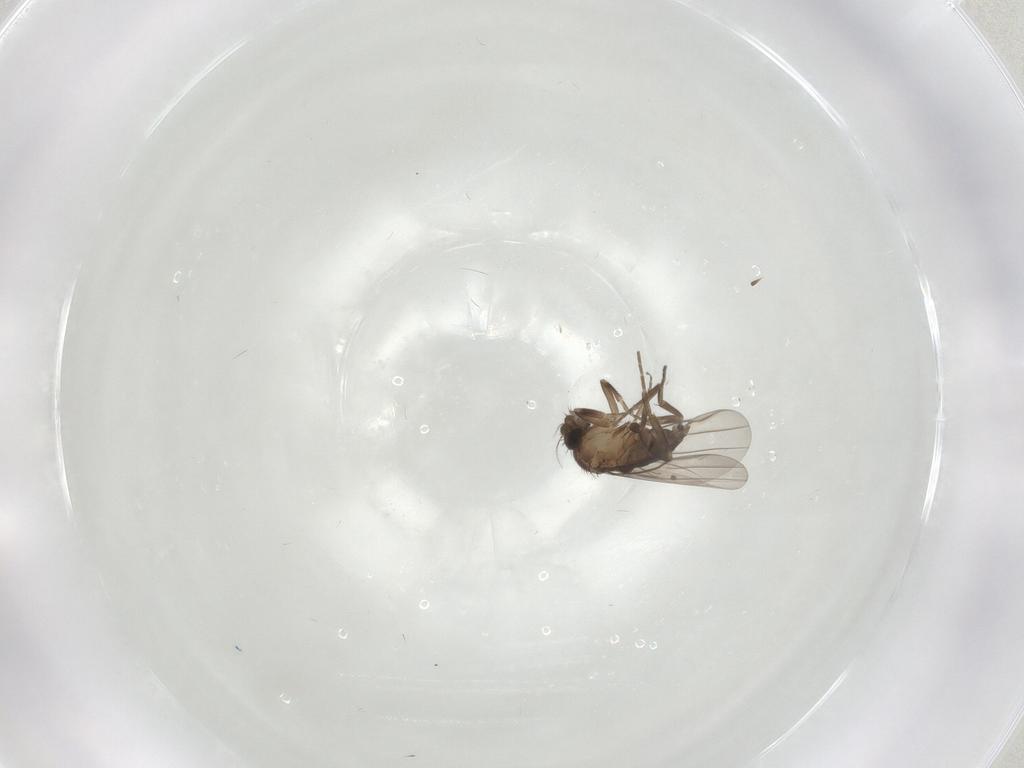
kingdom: Animalia
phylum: Arthropoda
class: Insecta
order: Diptera
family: Limoniidae
